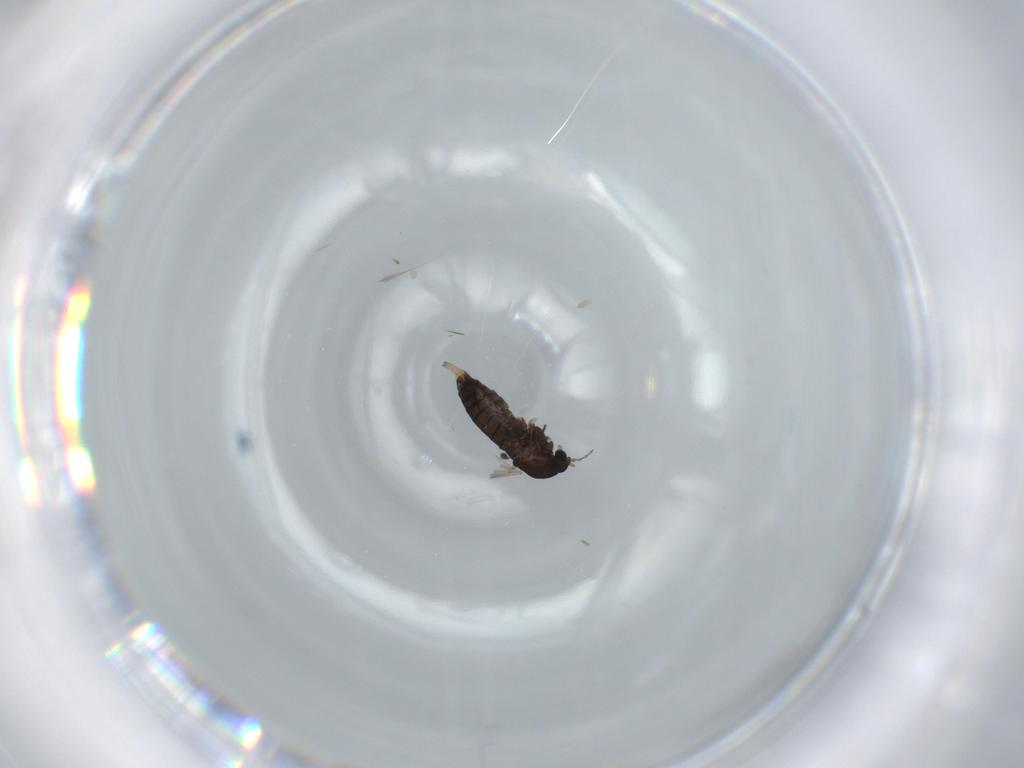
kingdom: Animalia
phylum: Arthropoda
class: Insecta
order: Diptera
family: Chironomidae
